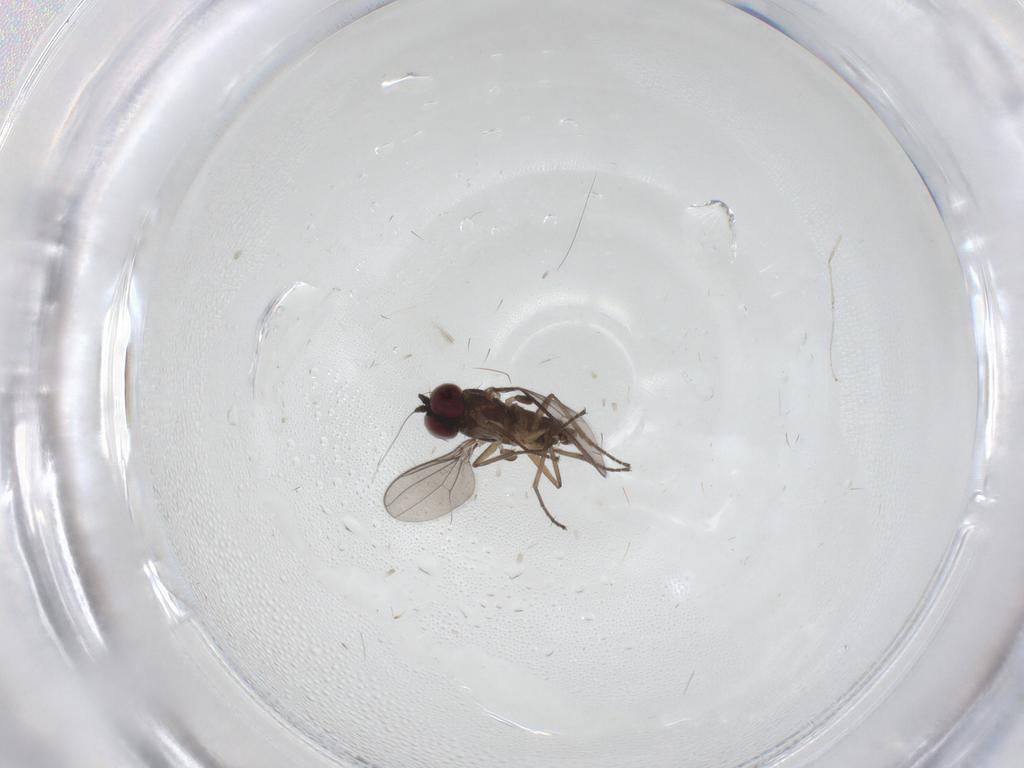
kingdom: Animalia
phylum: Arthropoda
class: Insecta
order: Diptera
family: Dolichopodidae
